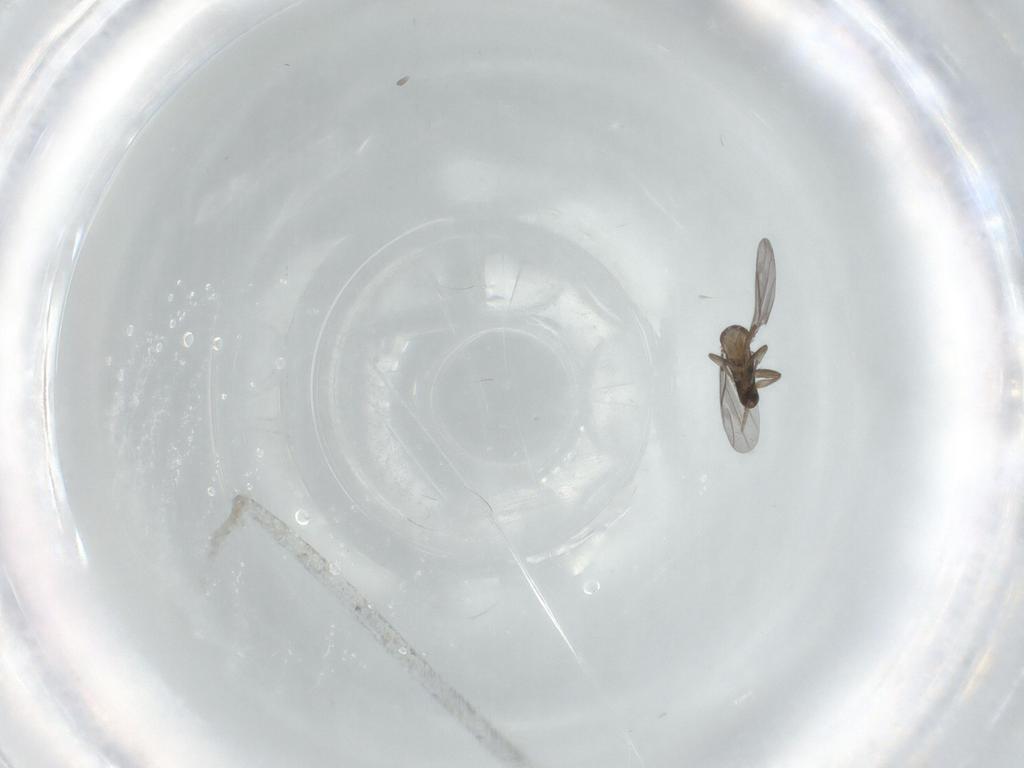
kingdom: Animalia
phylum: Arthropoda
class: Insecta
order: Diptera
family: Phoridae
